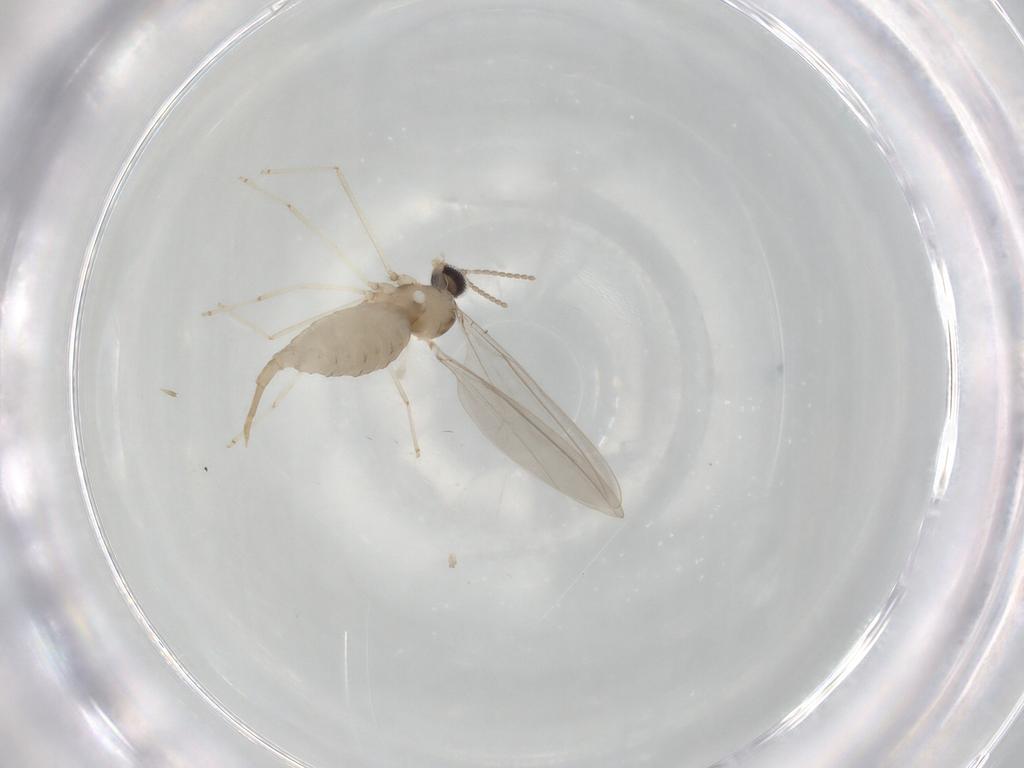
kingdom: Animalia
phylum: Arthropoda
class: Insecta
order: Diptera
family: Cecidomyiidae
